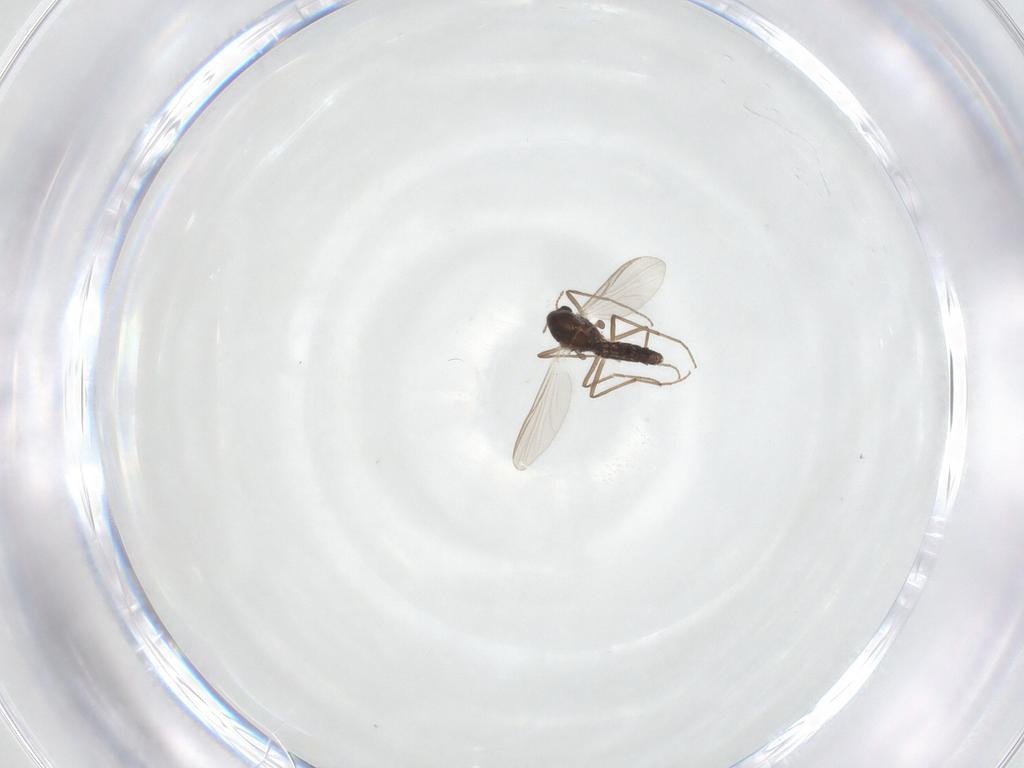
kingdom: Animalia
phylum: Arthropoda
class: Insecta
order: Diptera
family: Chironomidae
